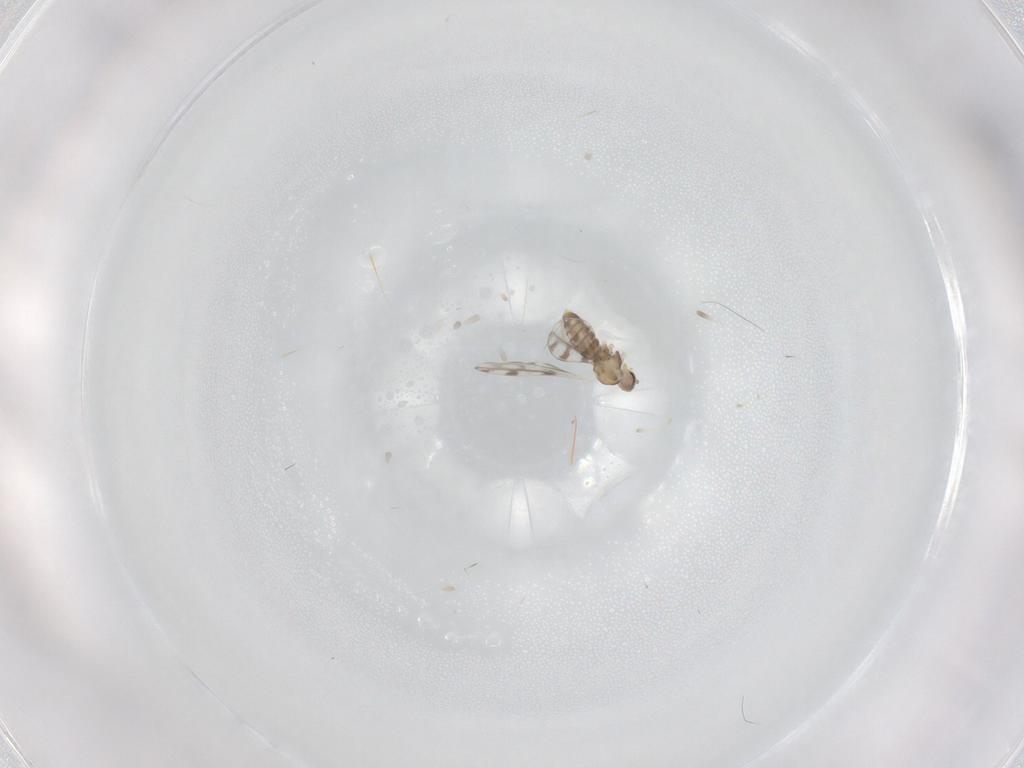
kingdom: Animalia
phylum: Arthropoda
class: Insecta
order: Diptera
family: Cecidomyiidae
